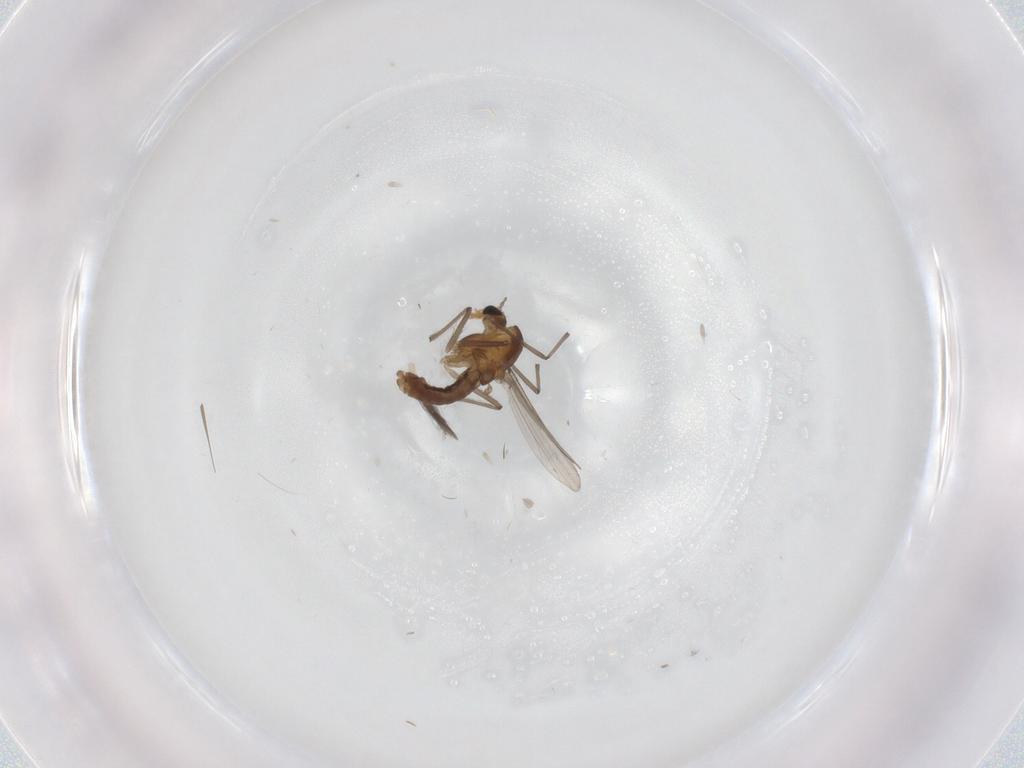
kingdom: Animalia
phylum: Arthropoda
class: Insecta
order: Diptera
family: Chironomidae
